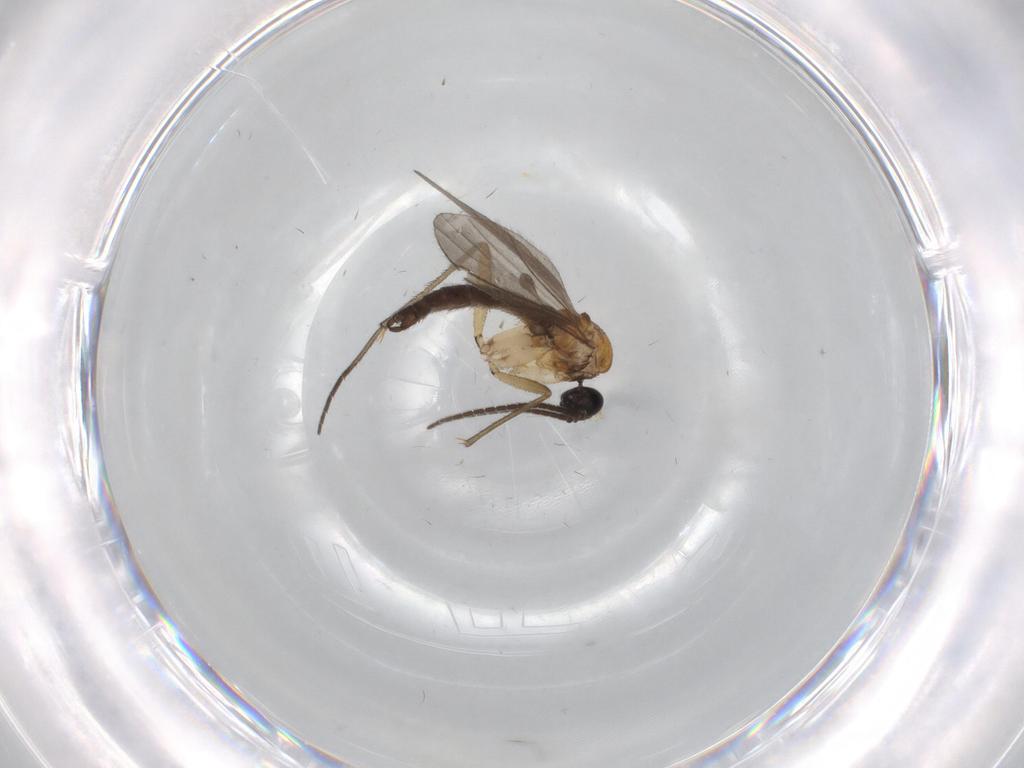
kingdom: Animalia
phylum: Arthropoda
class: Insecta
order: Diptera
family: Sciaridae
